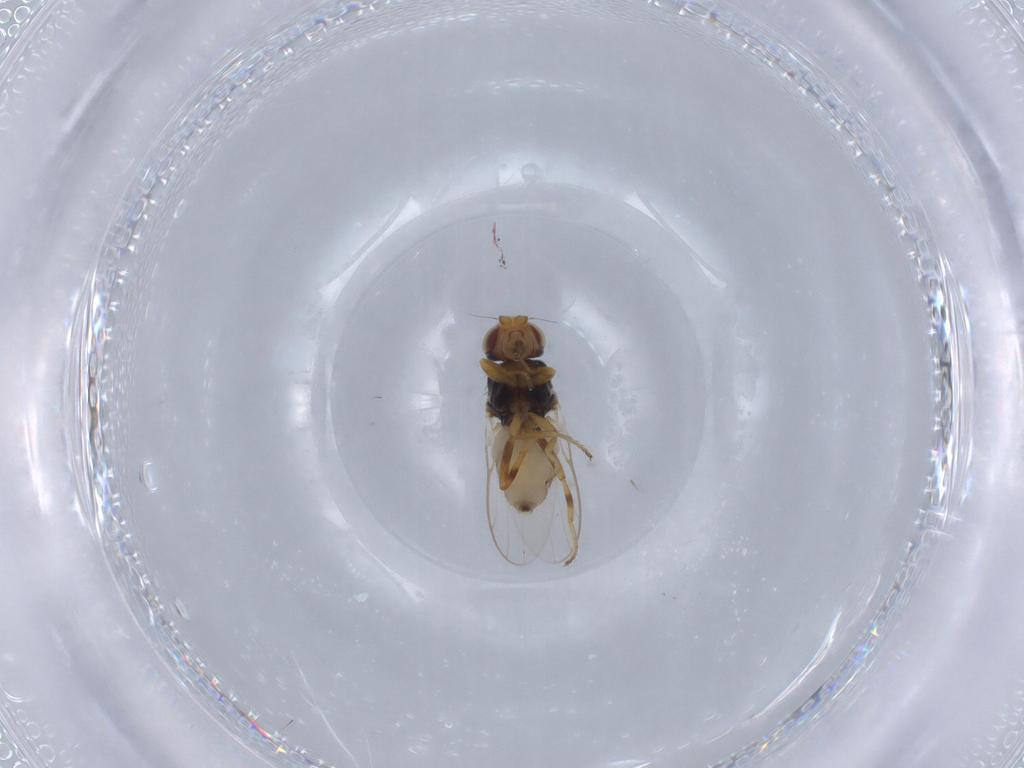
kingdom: Animalia
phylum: Arthropoda
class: Insecta
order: Diptera
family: Chloropidae
